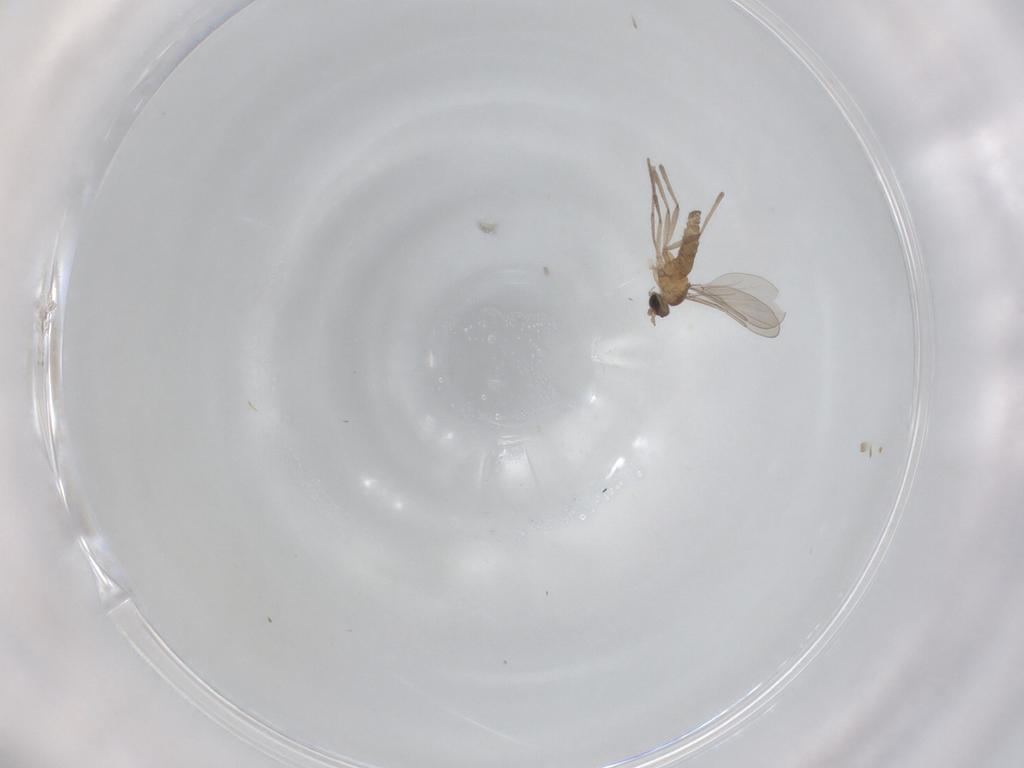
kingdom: Animalia
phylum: Arthropoda
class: Insecta
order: Diptera
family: Cecidomyiidae
